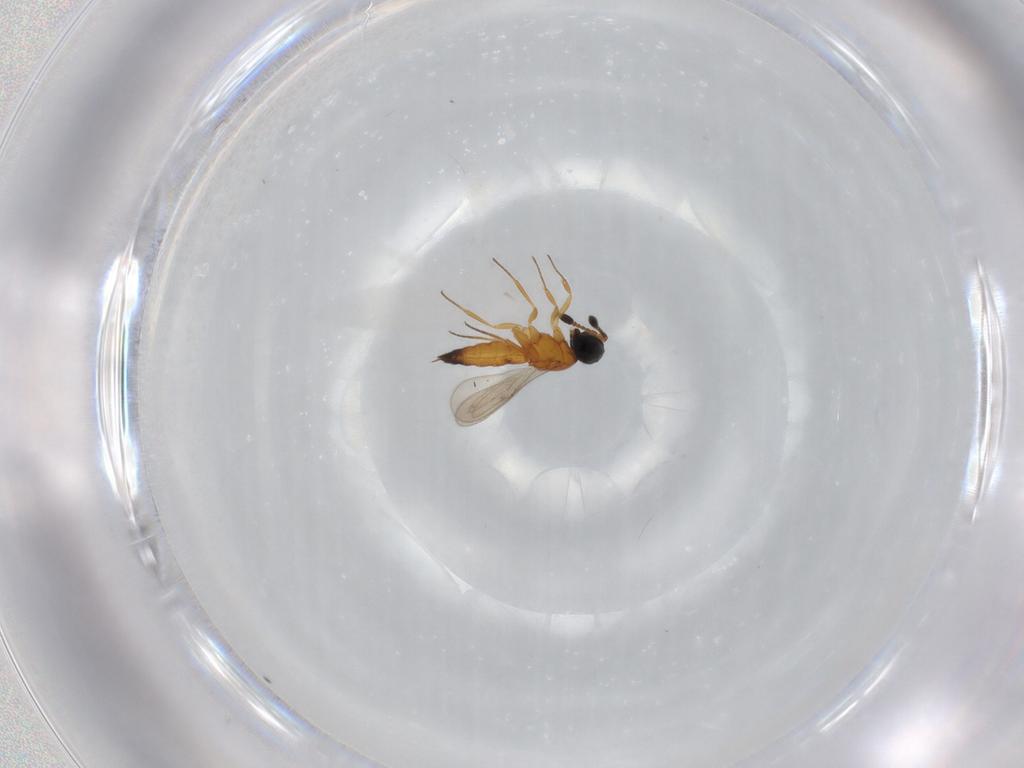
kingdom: Animalia
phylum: Arthropoda
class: Insecta
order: Hymenoptera
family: Scelionidae
